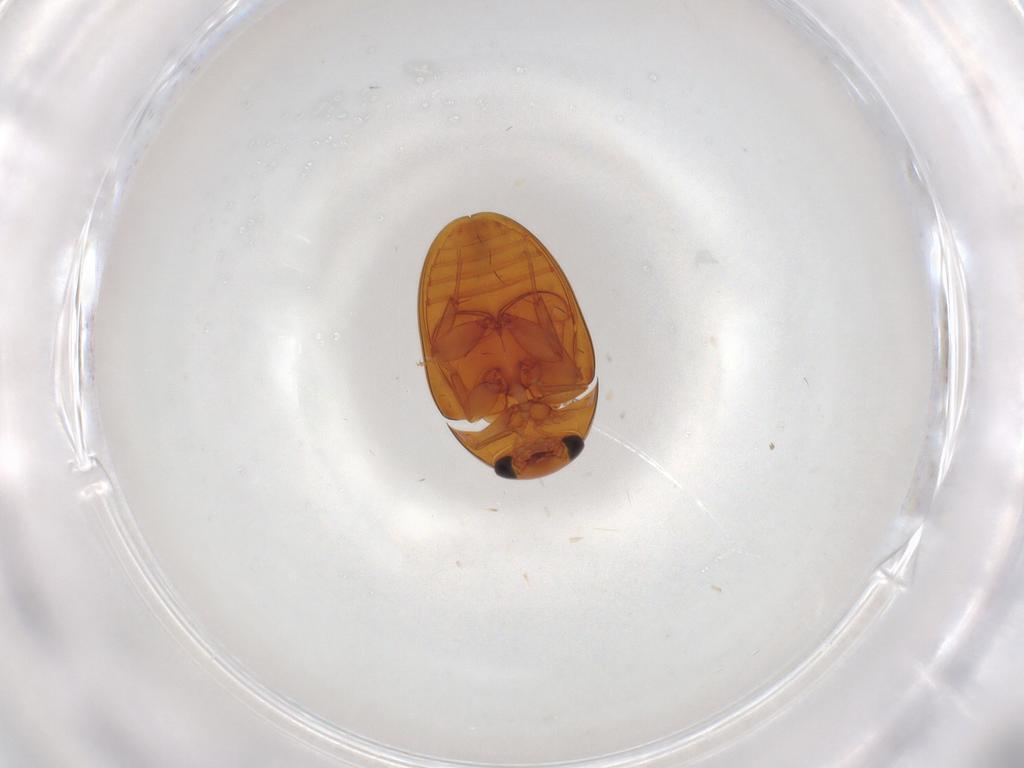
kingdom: Animalia
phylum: Arthropoda
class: Insecta
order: Coleoptera
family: Phalacridae
